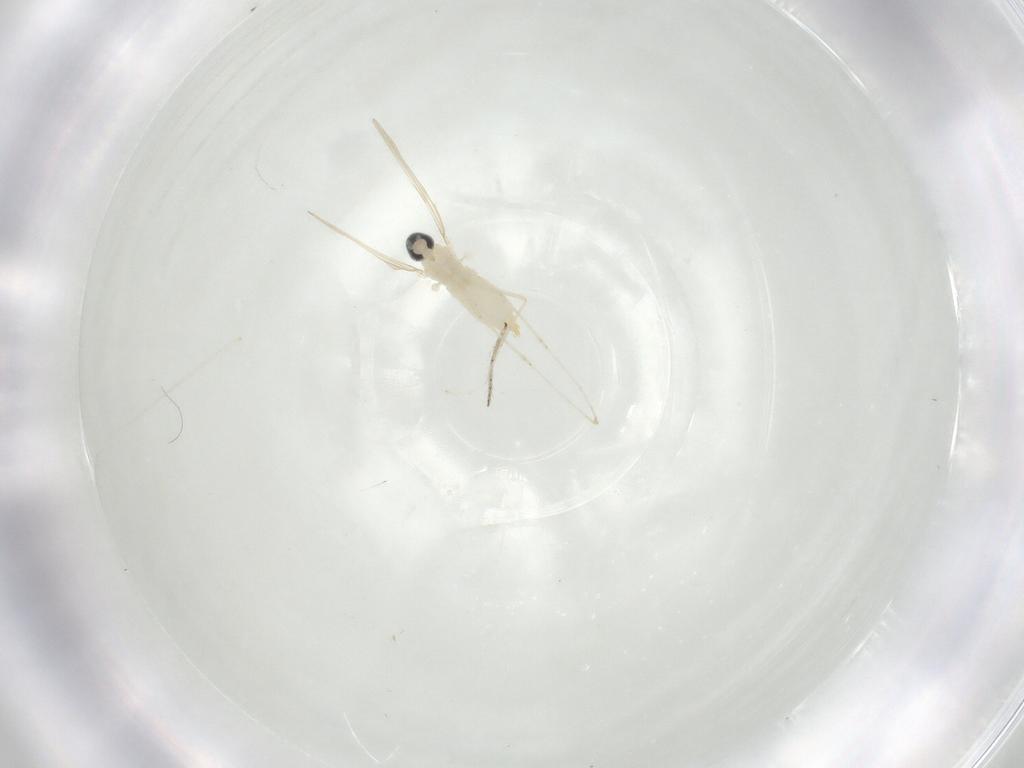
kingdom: Animalia
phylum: Arthropoda
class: Insecta
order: Diptera
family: Ceratopogonidae
